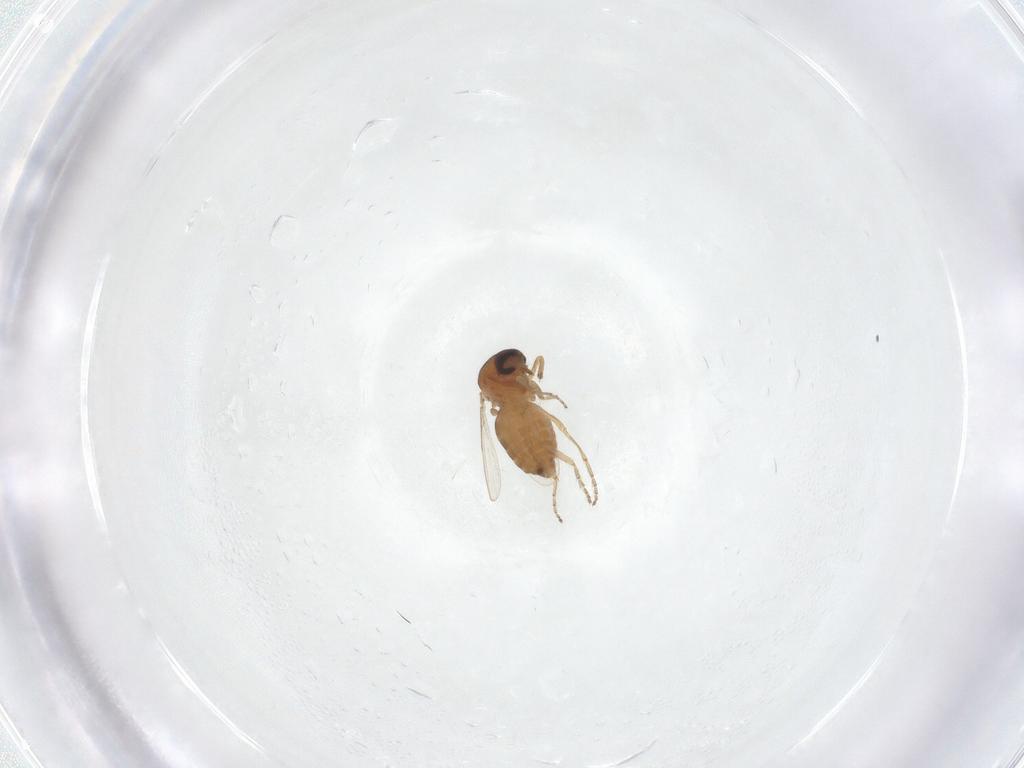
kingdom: Animalia
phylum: Arthropoda
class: Insecta
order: Diptera
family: Ceratopogonidae
